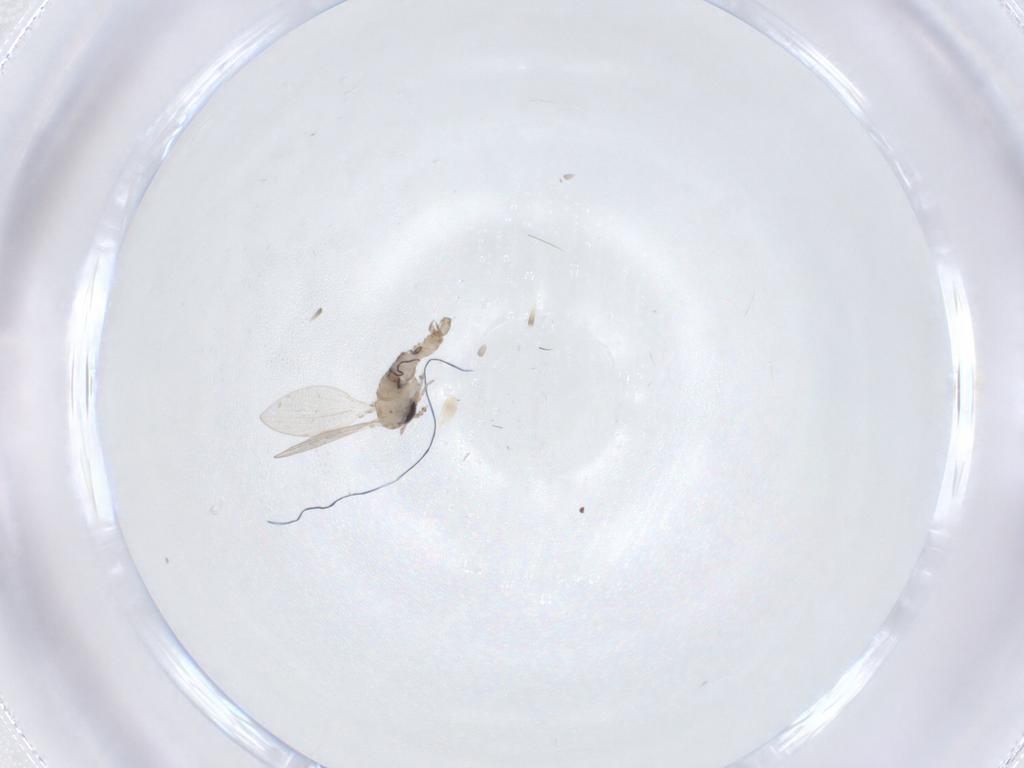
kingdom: Animalia
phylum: Arthropoda
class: Insecta
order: Diptera
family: Psychodidae
